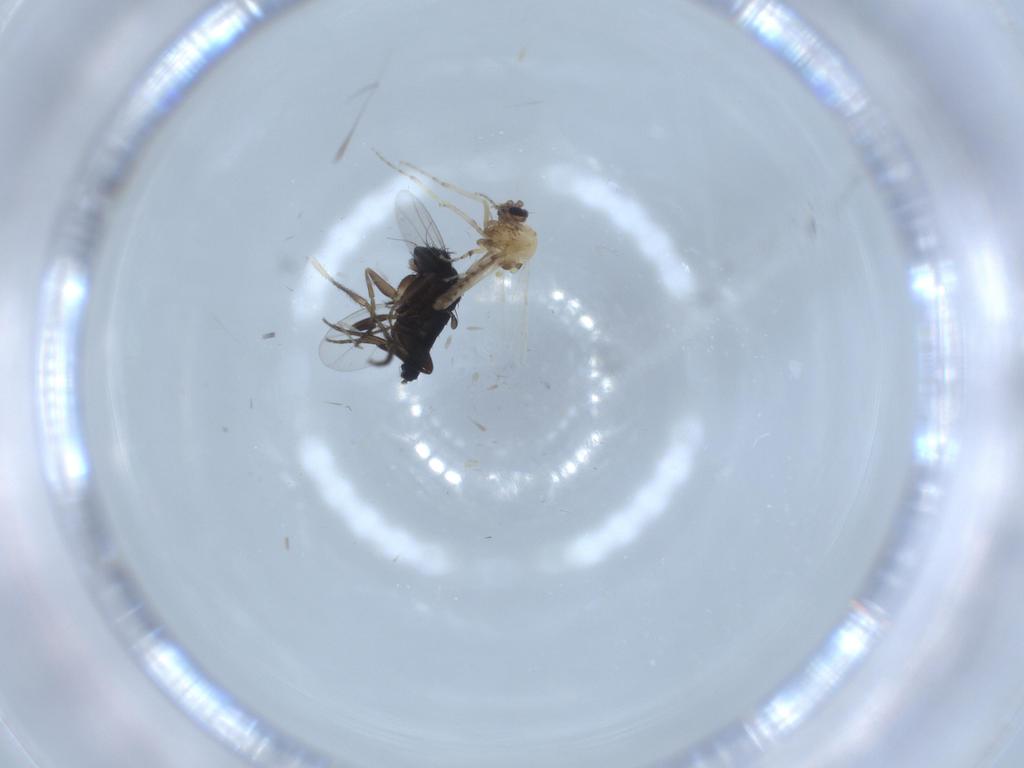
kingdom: Animalia
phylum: Arthropoda
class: Insecta
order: Diptera
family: Sciaridae
